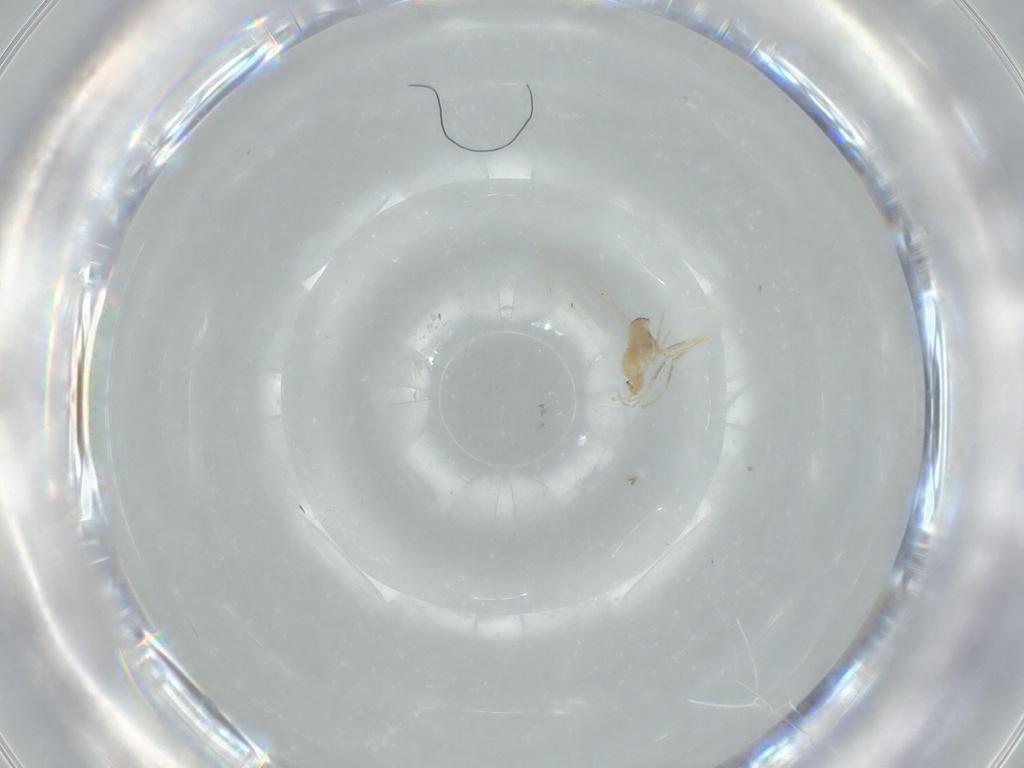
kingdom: Animalia
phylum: Arthropoda
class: Insecta
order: Diptera
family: Cecidomyiidae
